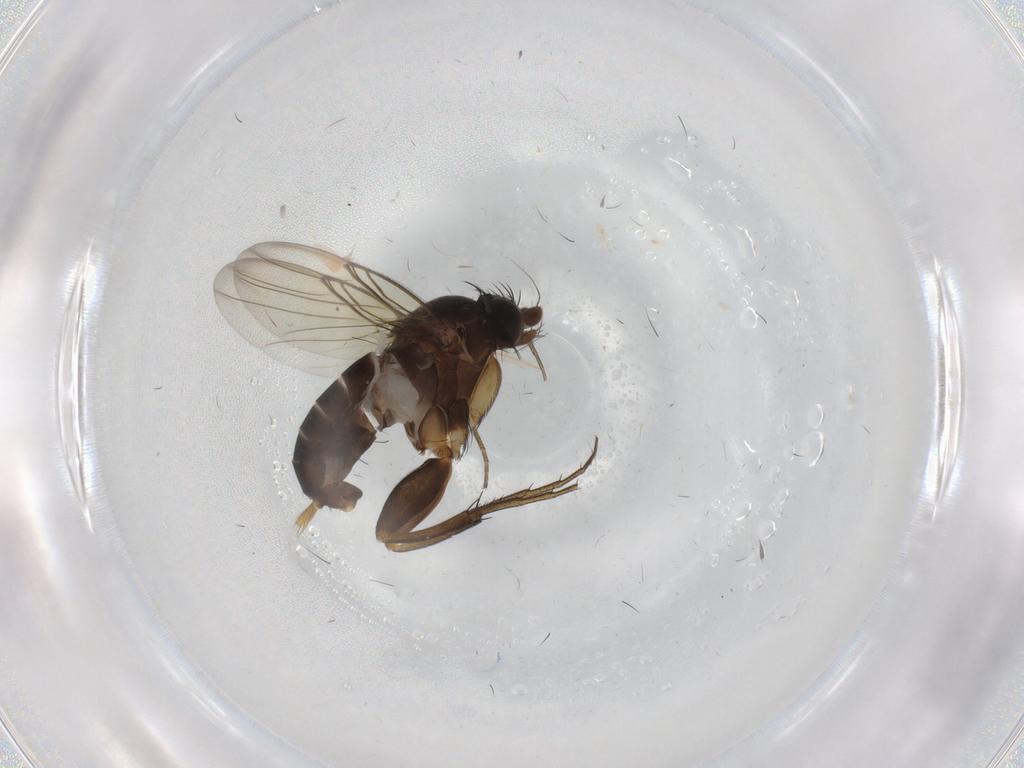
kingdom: Animalia
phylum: Arthropoda
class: Insecta
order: Diptera
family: Phoridae
